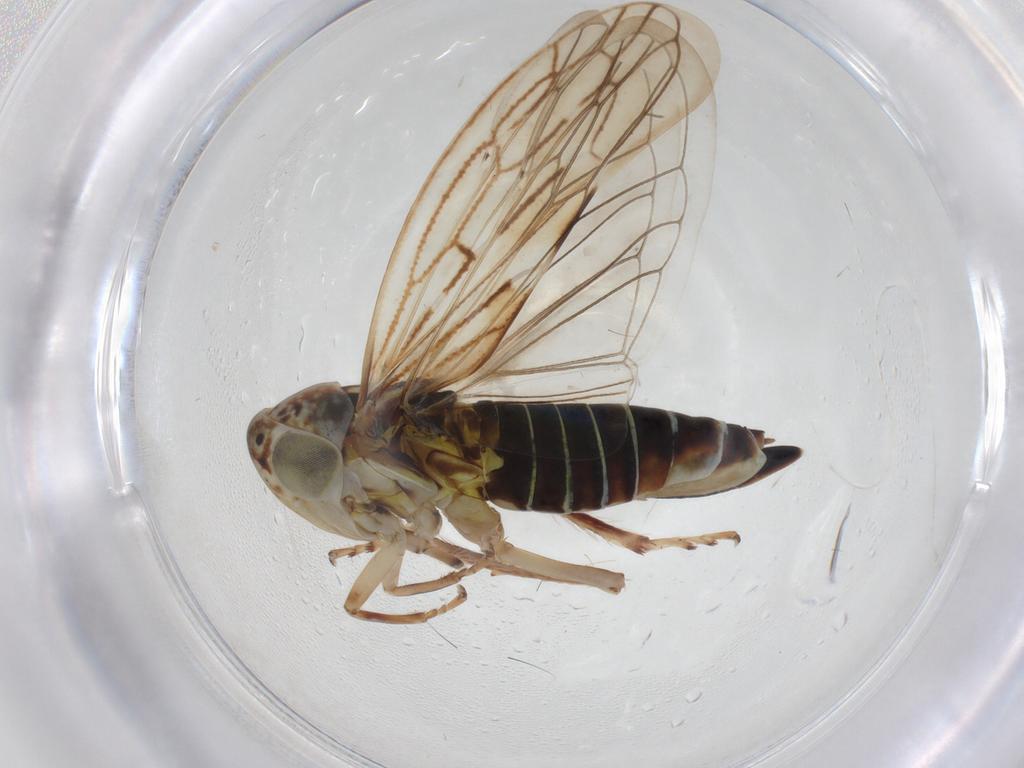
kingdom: Animalia
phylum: Arthropoda
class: Insecta
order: Hemiptera
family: Cicadellidae
